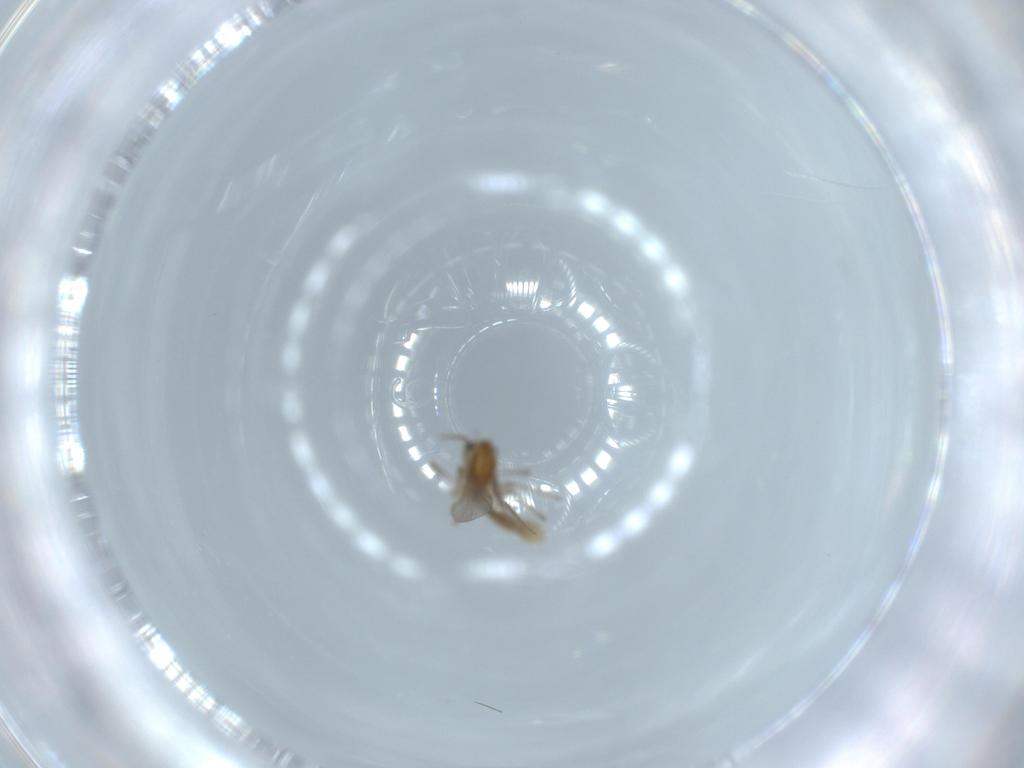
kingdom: Animalia
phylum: Arthropoda
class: Insecta
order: Diptera
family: Chironomidae
